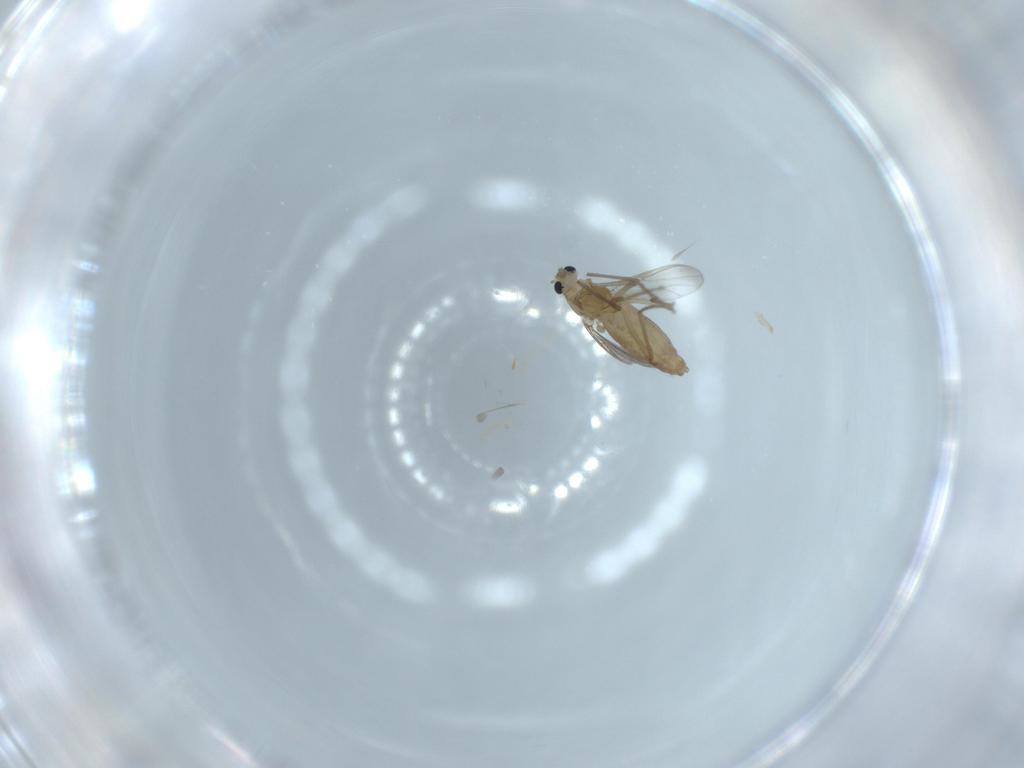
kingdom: Animalia
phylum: Arthropoda
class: Insecta
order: Diptera
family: Chironomidae
